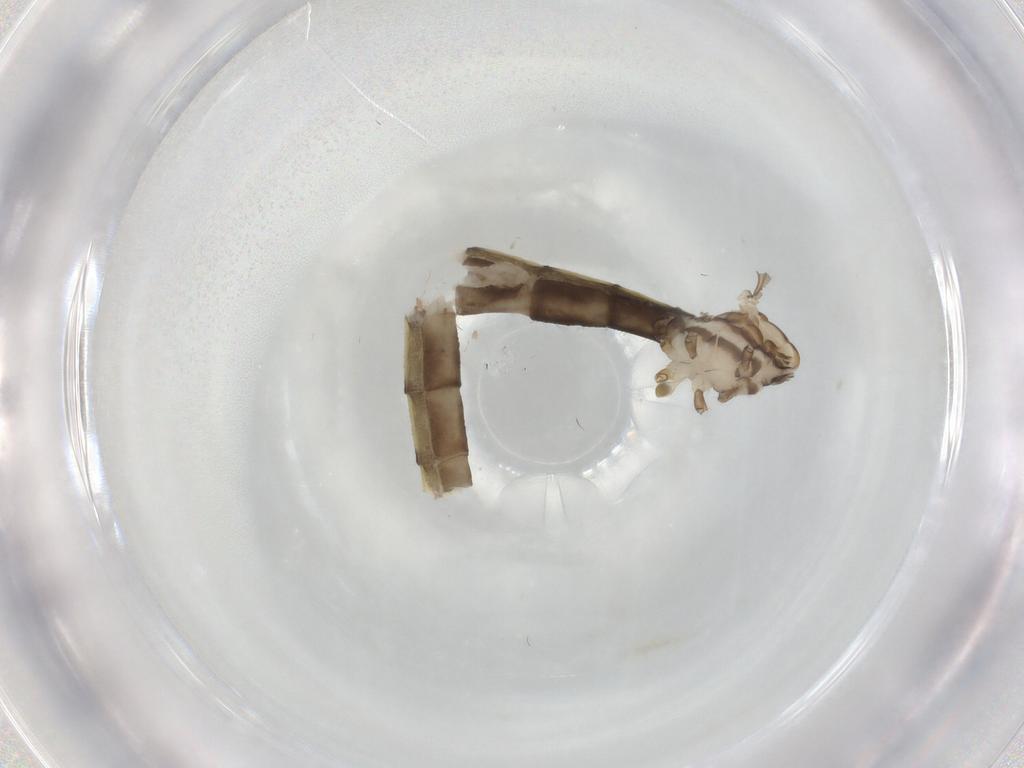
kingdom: Animalia
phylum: Arthropoda
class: Insecta
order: Diptera
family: Limoniidae
